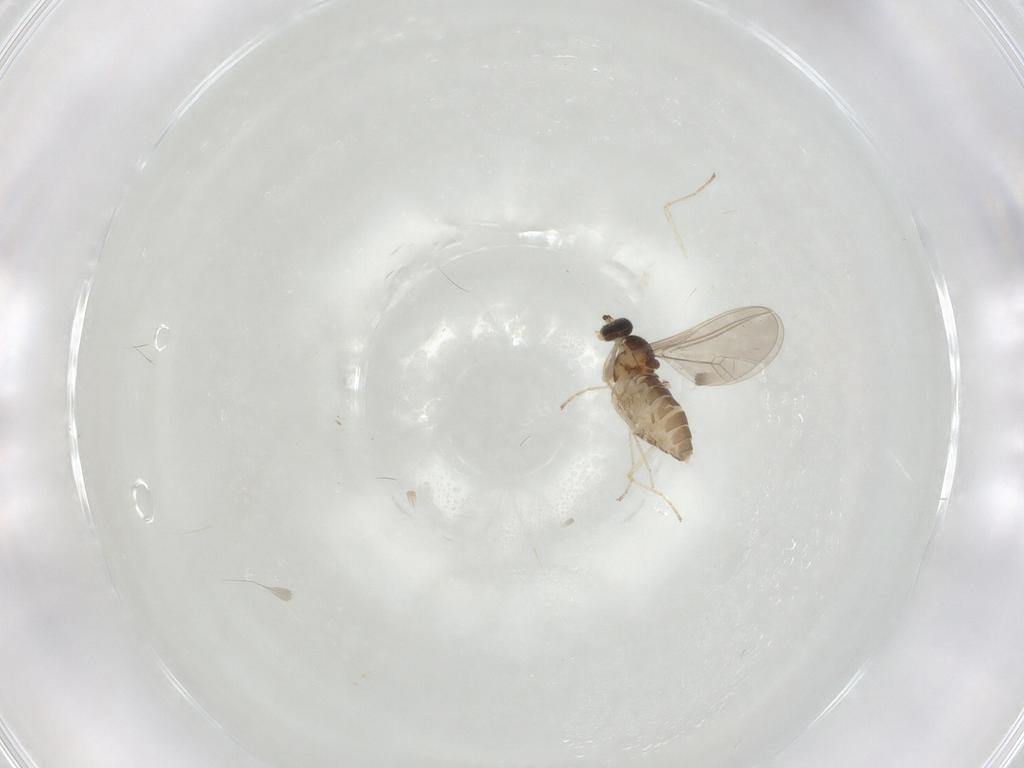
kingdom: Animalia
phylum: Arthropoda
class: Insecta
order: Diptera
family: Cecidomyiidae
